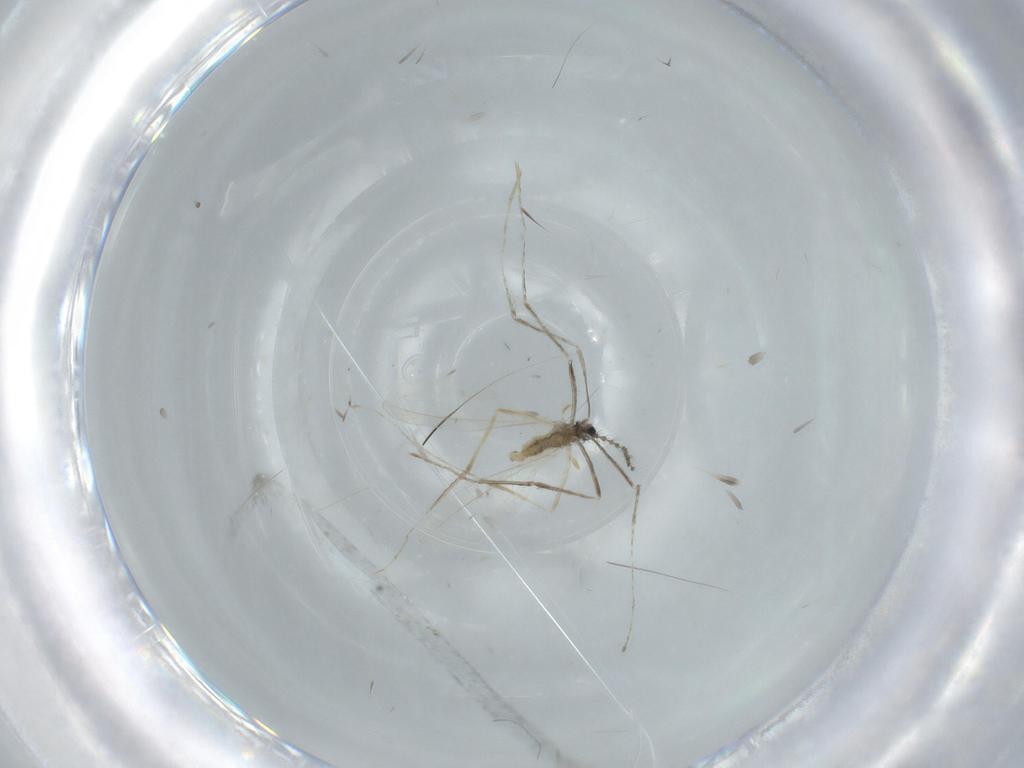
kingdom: Animalia
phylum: Arthropoda
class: Insecta
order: Diptera
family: Cecidomyiidae
